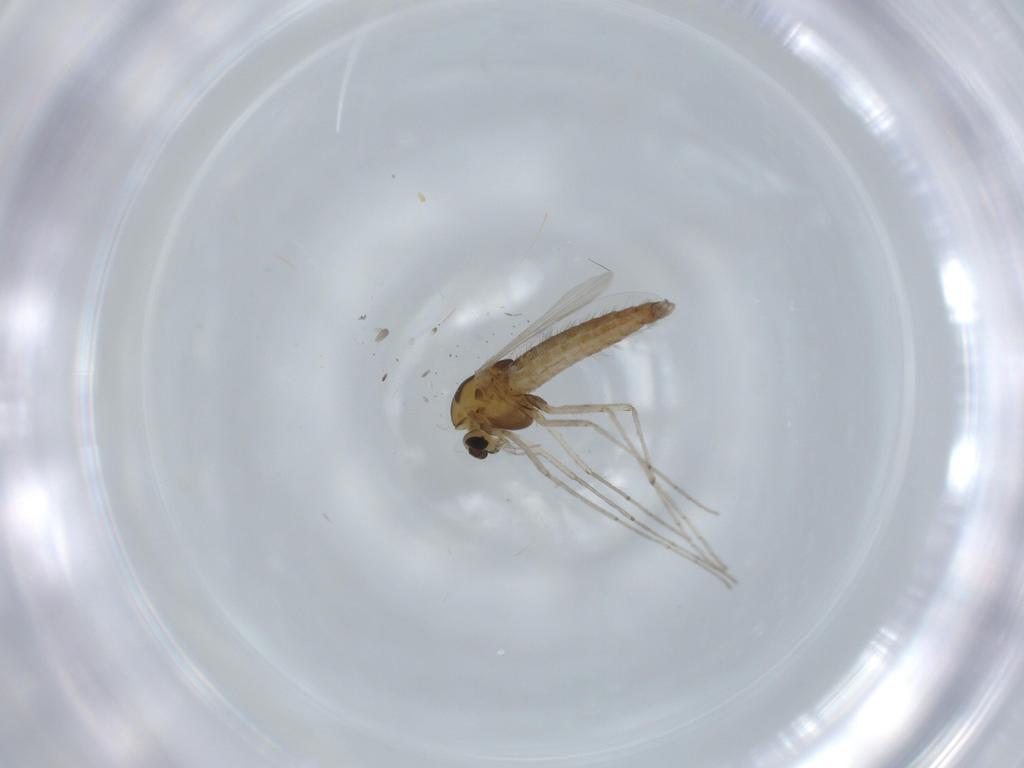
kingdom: Animalia
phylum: Arthropoda
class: Insecta
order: Diptera
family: Chironomidae
